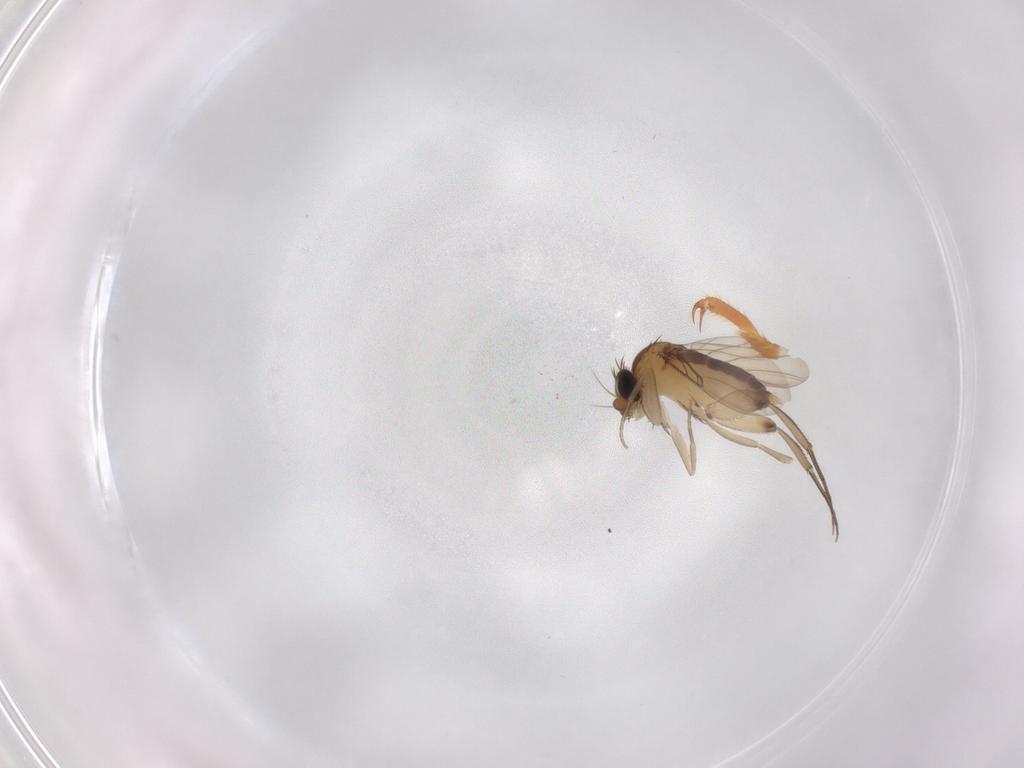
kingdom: Animalia
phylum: Arthropoda
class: Insecta
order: Diptera
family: Phoridae
